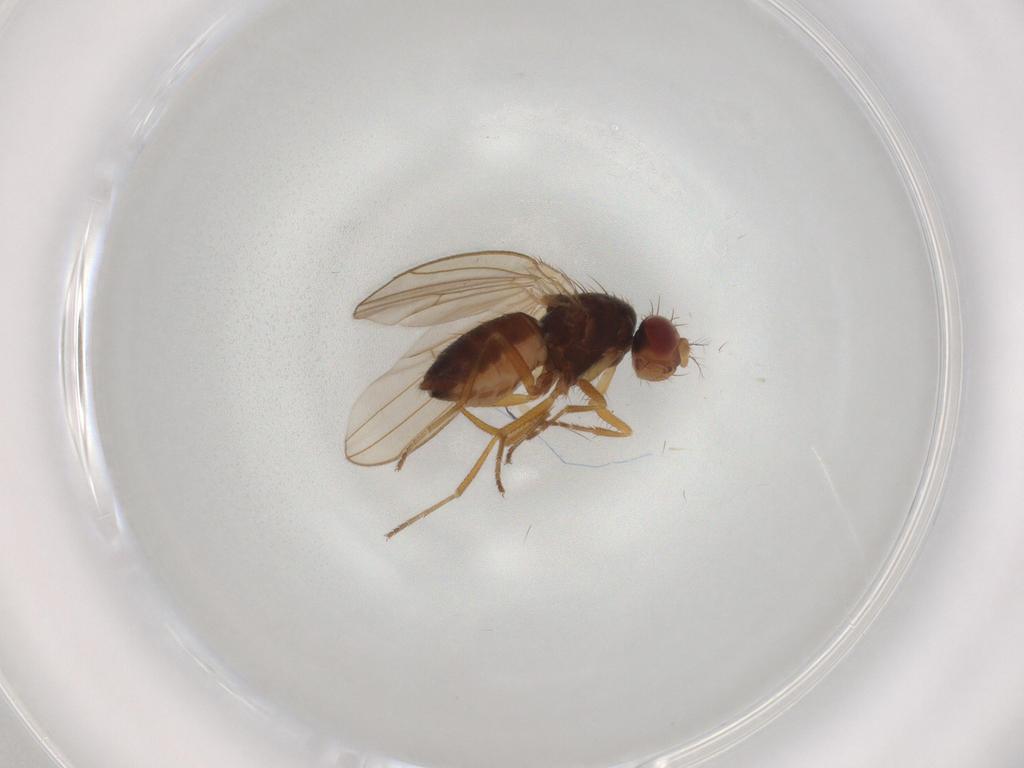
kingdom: Animalia
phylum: Arthropoda
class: Insecta
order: Diptera
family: Drosophilidae
